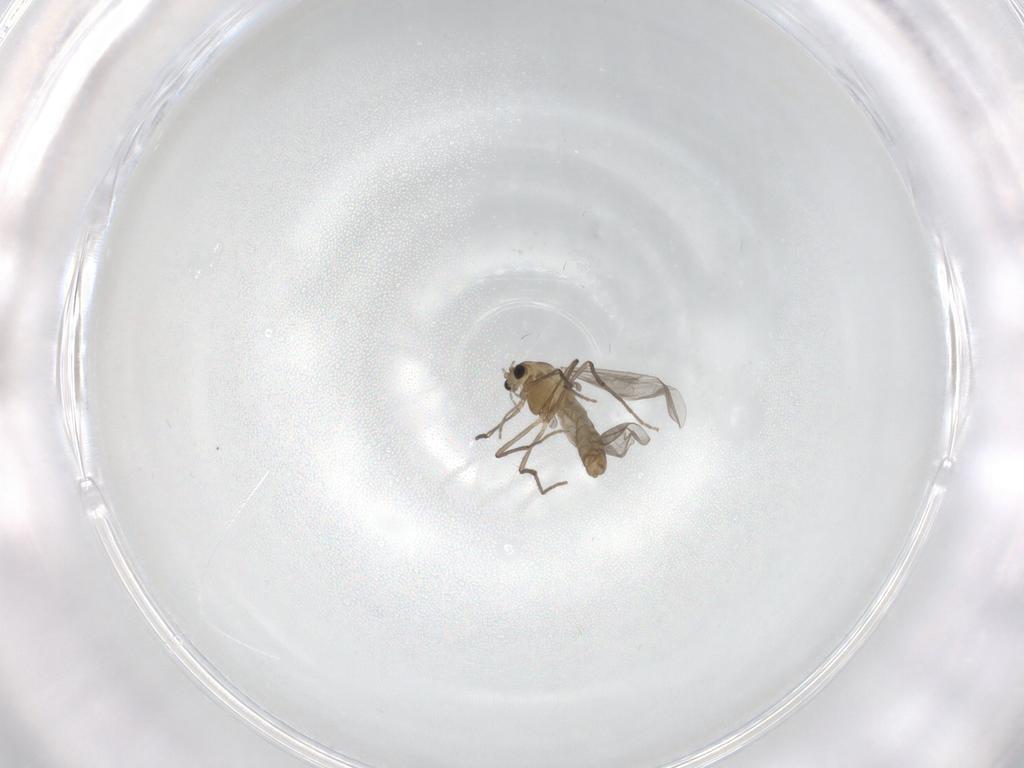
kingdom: Animalia
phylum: Arthropoda
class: Insecta
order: Diptera
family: Chironomidae
